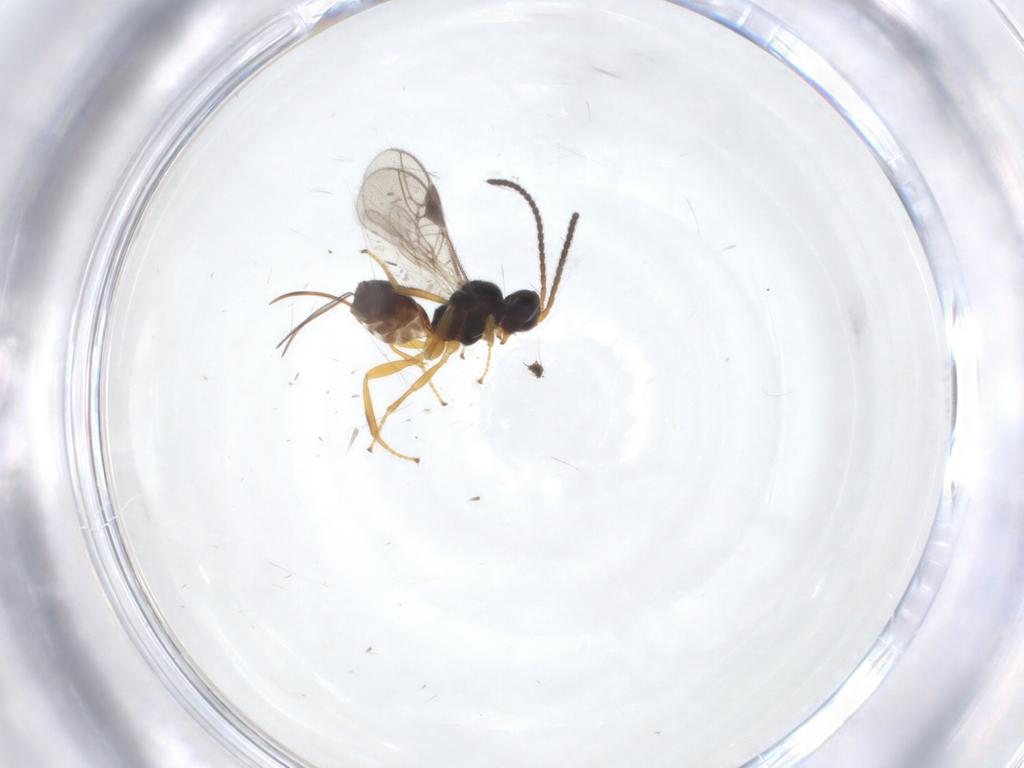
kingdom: Animalia
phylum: Arthropoda
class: Insecta
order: Hymenoptera
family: Braconidae
